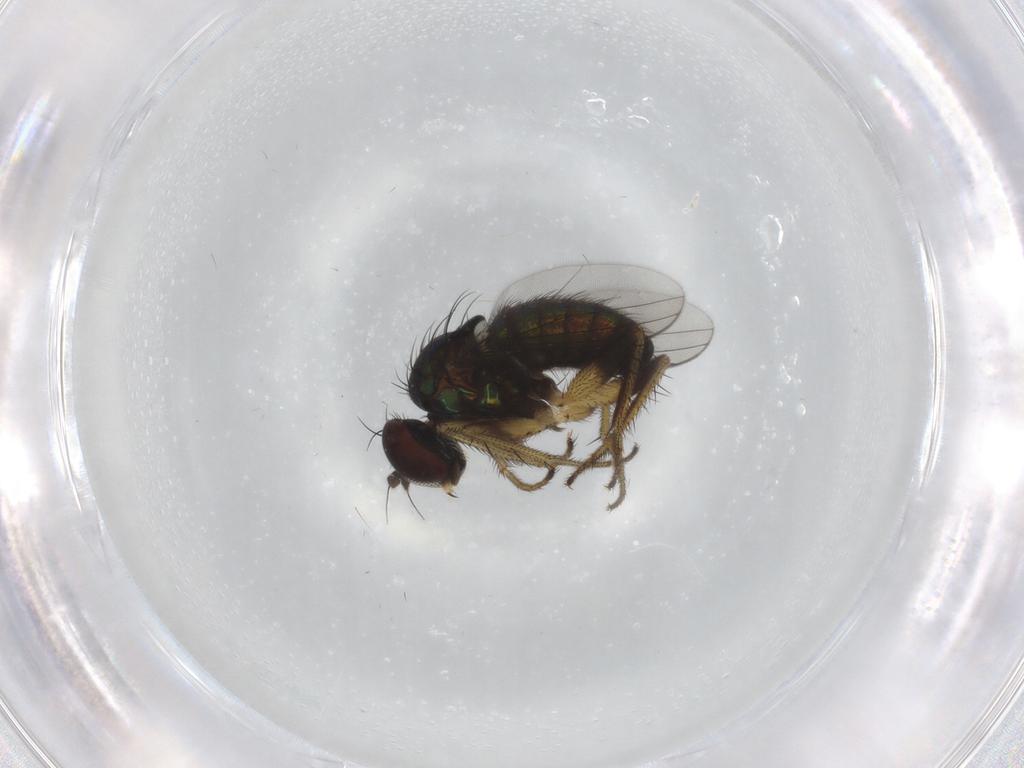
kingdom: Animalia
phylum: Arthropoda
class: Insecta
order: Diptera
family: Dolichopodidae
